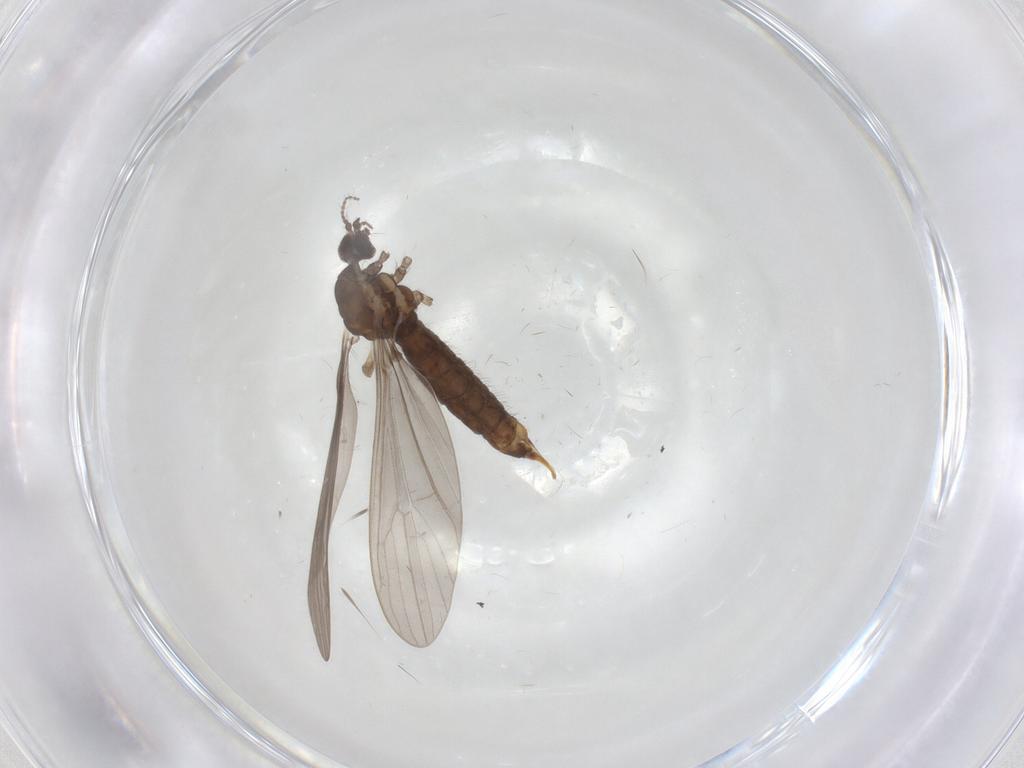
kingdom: Animalia
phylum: Arthropoda
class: Insecta
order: Diptera
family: Limoniidae
